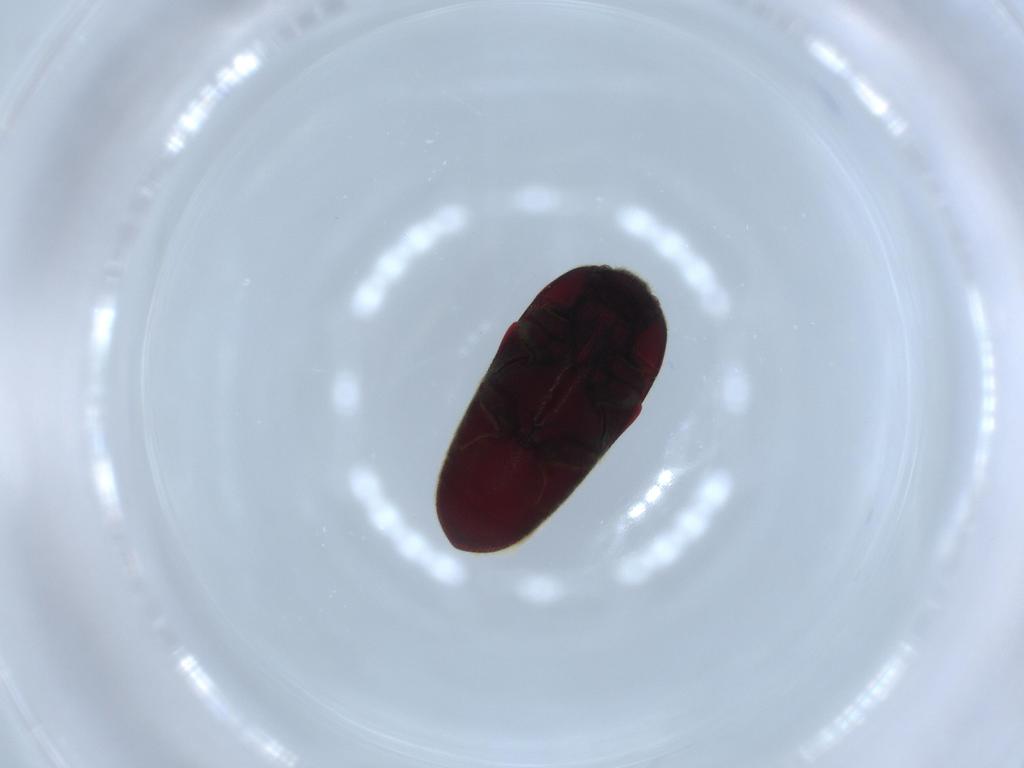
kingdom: Animalia
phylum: Arthropoda
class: Insecta
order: Coleoptera
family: Throscidae
